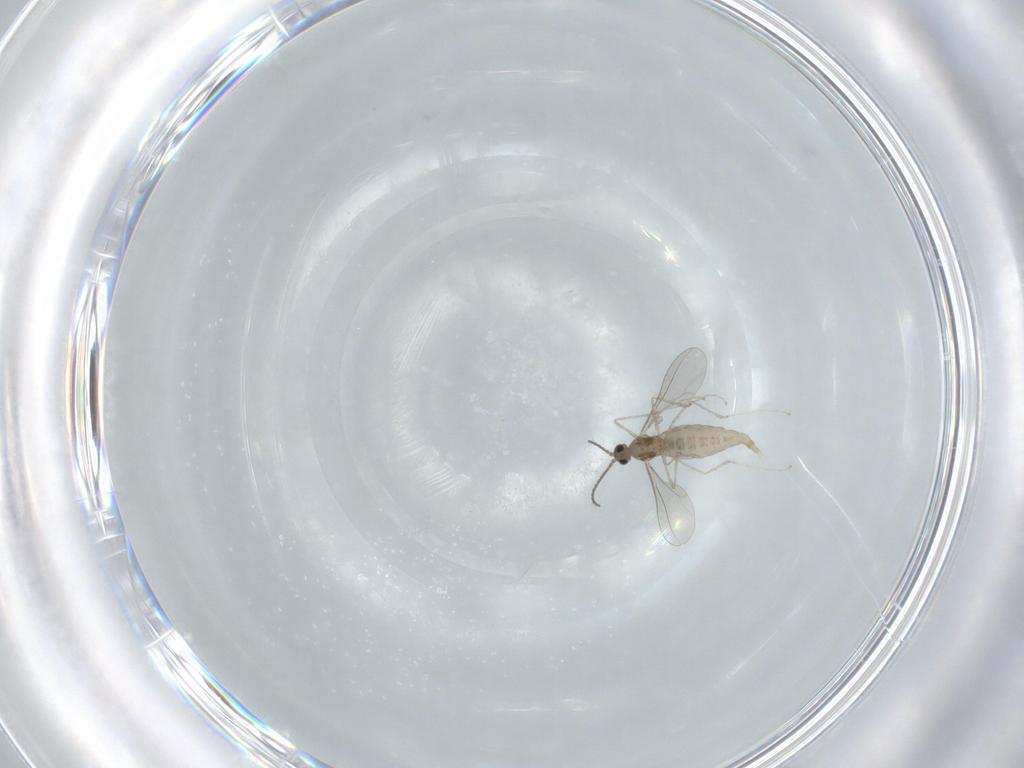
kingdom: Animalia
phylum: Arthropoda
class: Insecta
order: Diptera
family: Cecidomyiidae
